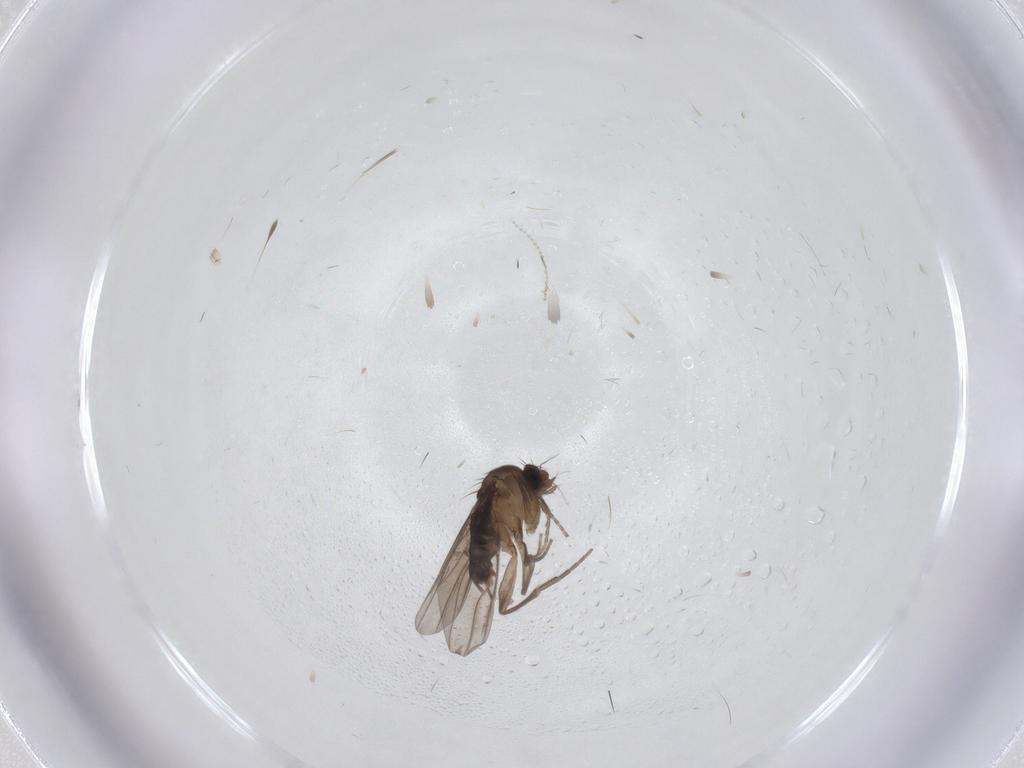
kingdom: Animalia
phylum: Arthropoda
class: Insecta
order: Diptera
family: Phoridae
